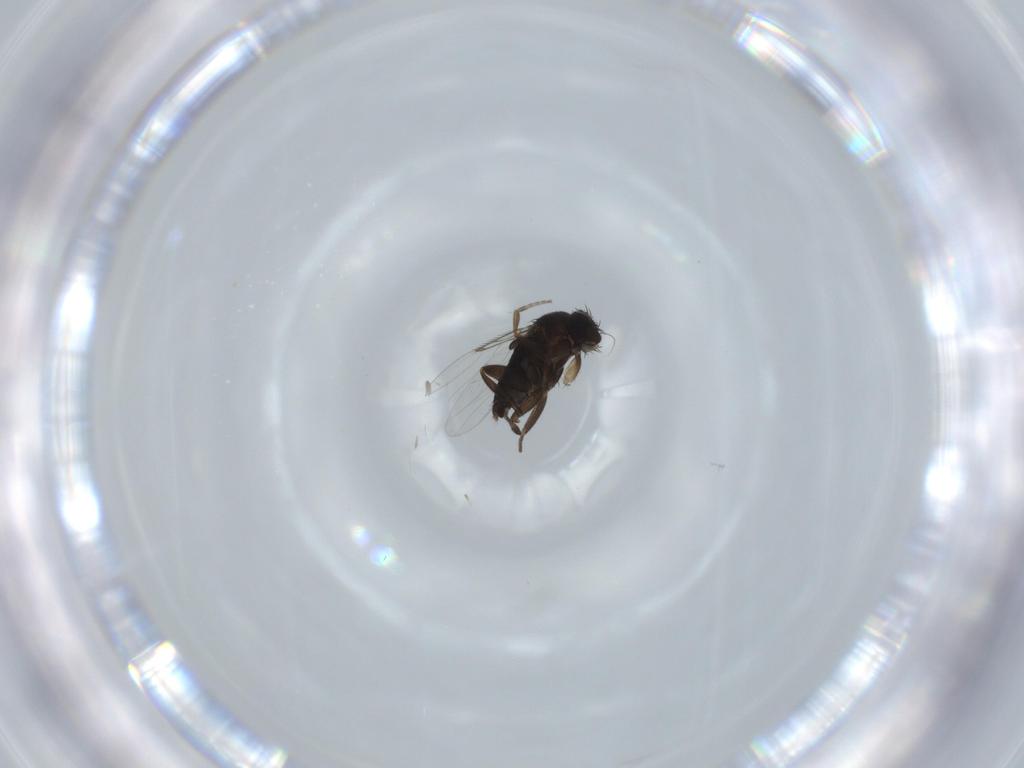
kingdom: Animalia
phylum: Arthropoda
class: Insecta
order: Diptera
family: Phoridae
